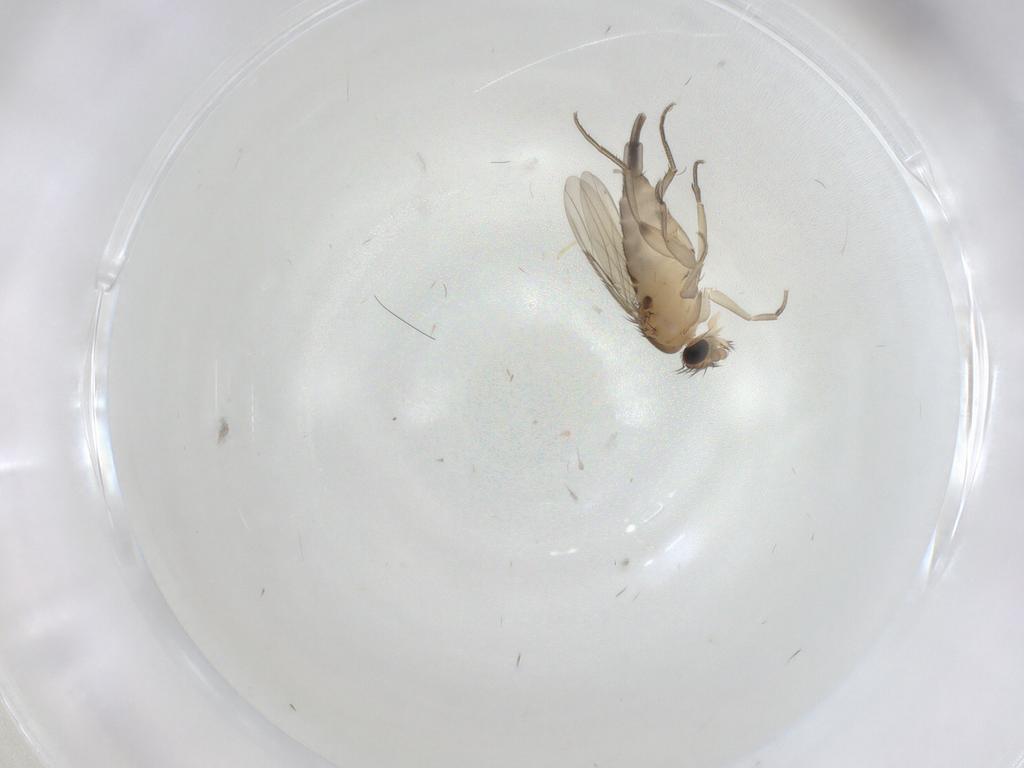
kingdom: Animalia
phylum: Arthropoda
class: Insecta
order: Diptera
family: Phoridae
